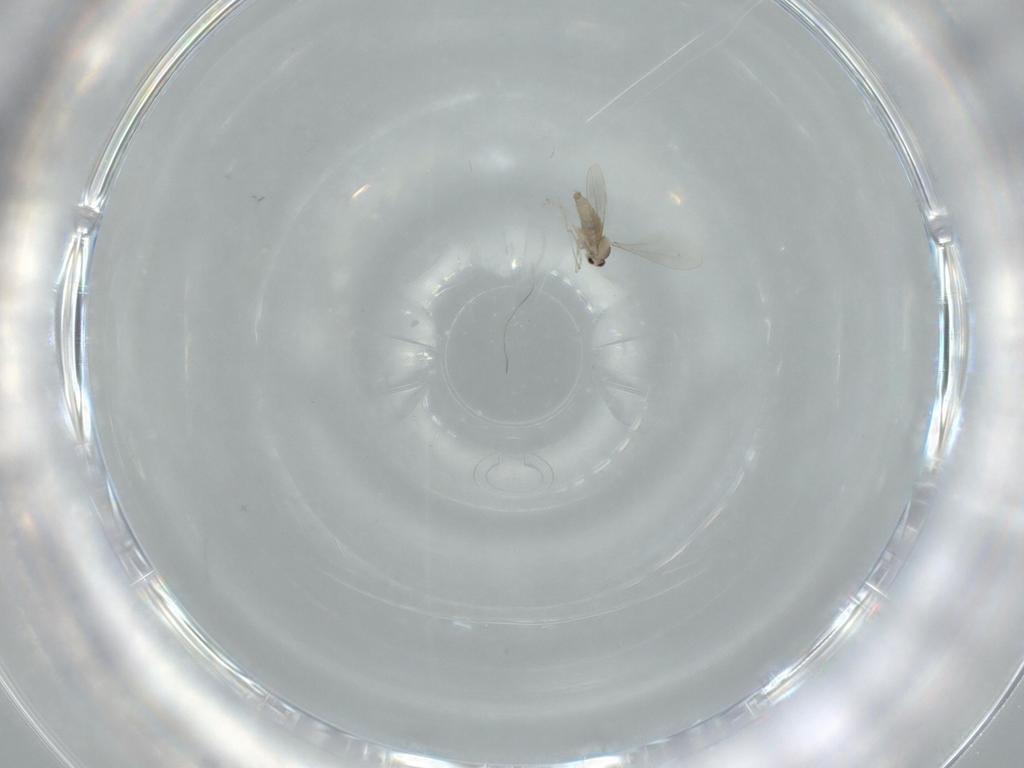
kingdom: Animalia
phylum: Arthropoda
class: Insecta
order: Diptera
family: Cecidomyiidae
